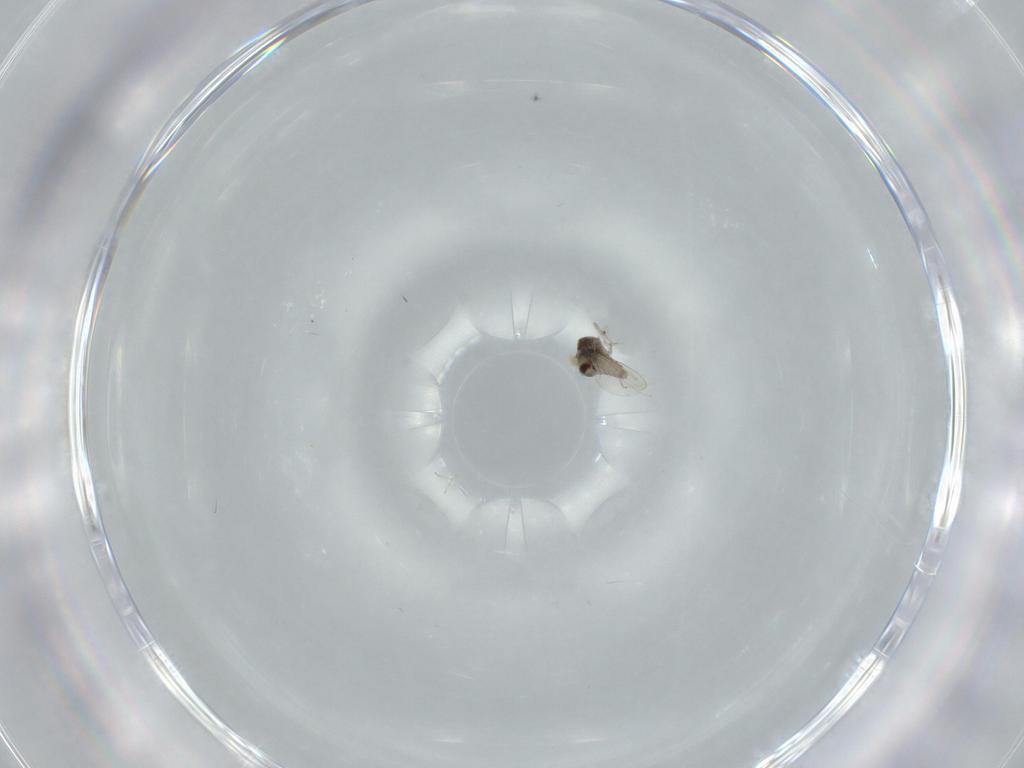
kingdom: Animalia
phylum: Arthropoda
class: Insecta
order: Diptera
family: Cecidomyiidae
